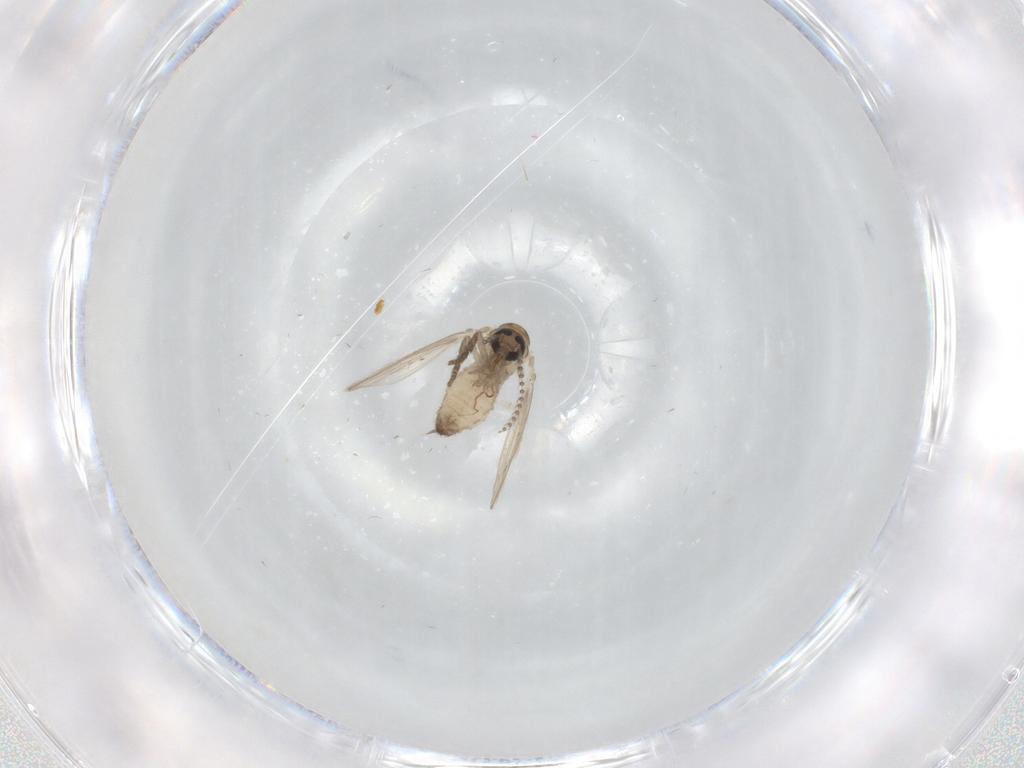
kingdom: Animalia
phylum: Arthropoda
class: Insecta
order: Diptera
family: Psychodidae
